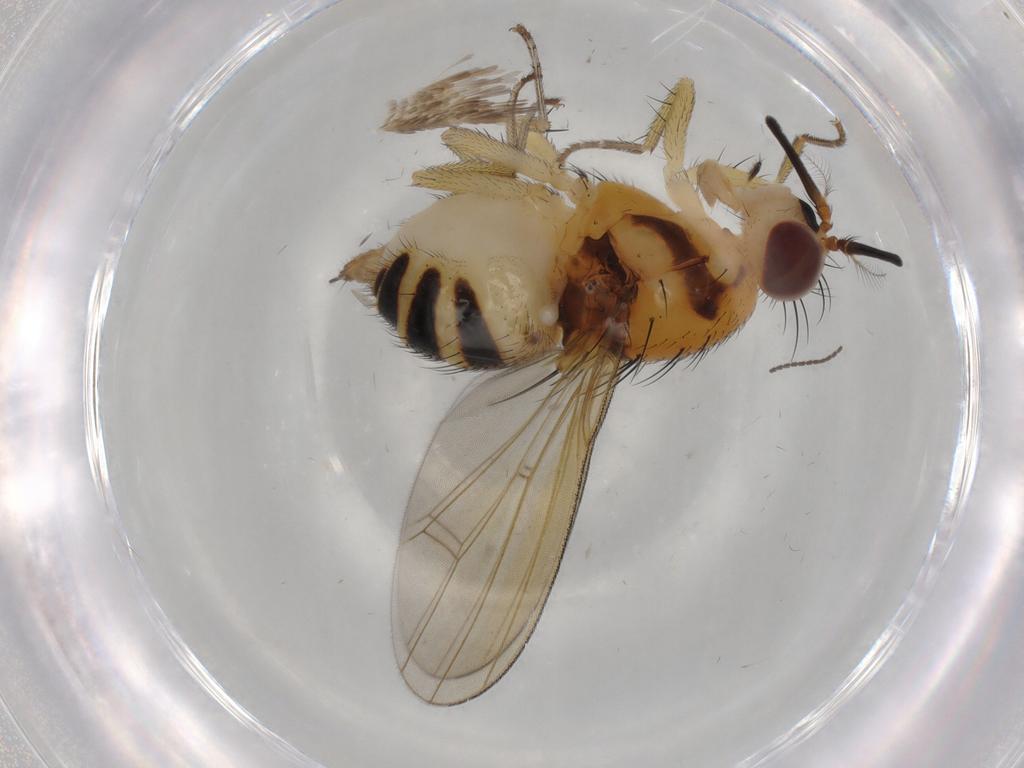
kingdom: Animalia
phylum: Arthropoda
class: Insecta
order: Diptera
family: Lauxaniidae
